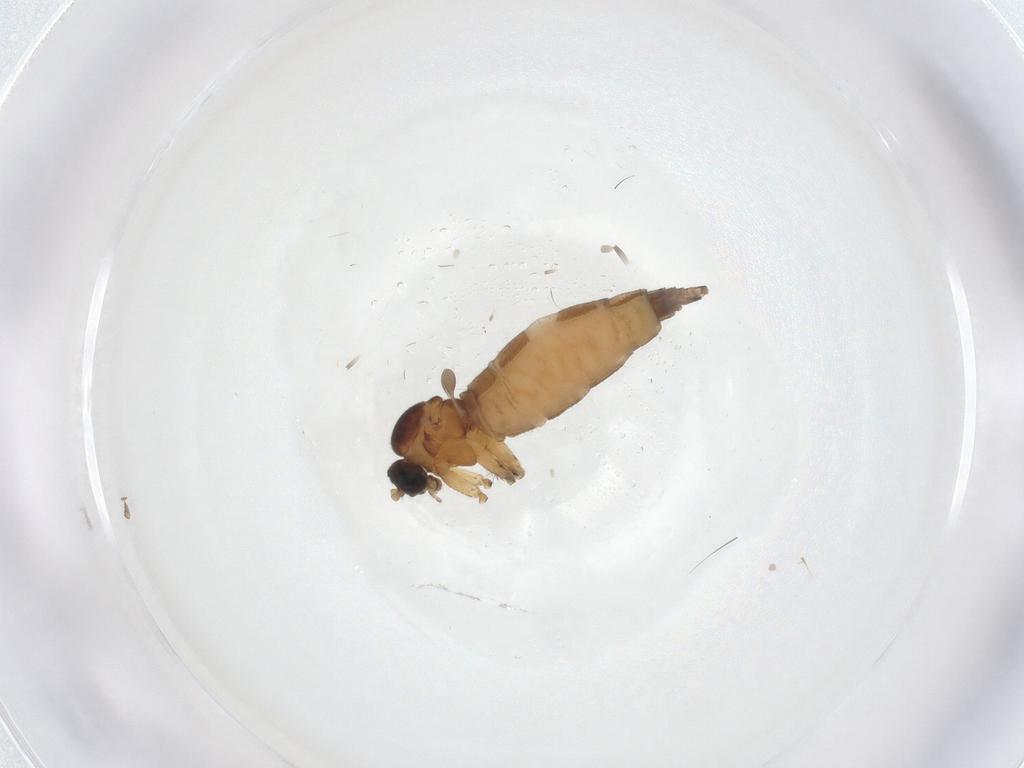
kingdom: Animalia
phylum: Arthropoda
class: Insecta
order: Diptera
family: Sciaridae
